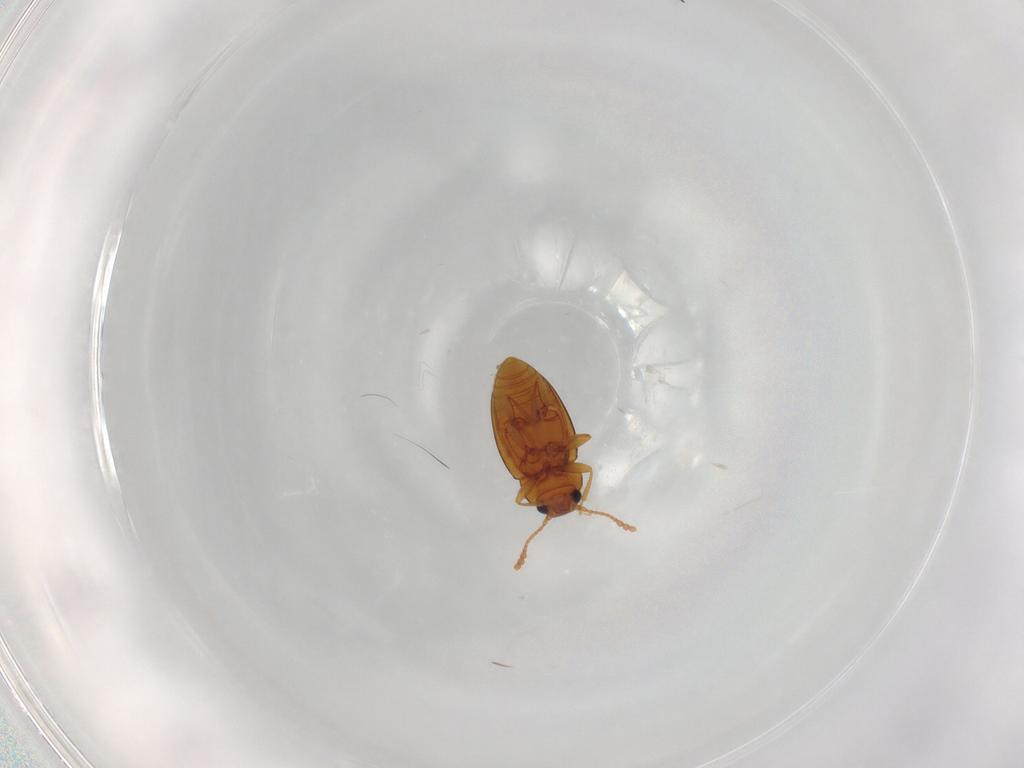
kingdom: Animalia
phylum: Arthropoda
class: Insecta
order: Coleoptera
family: Erotylidae
